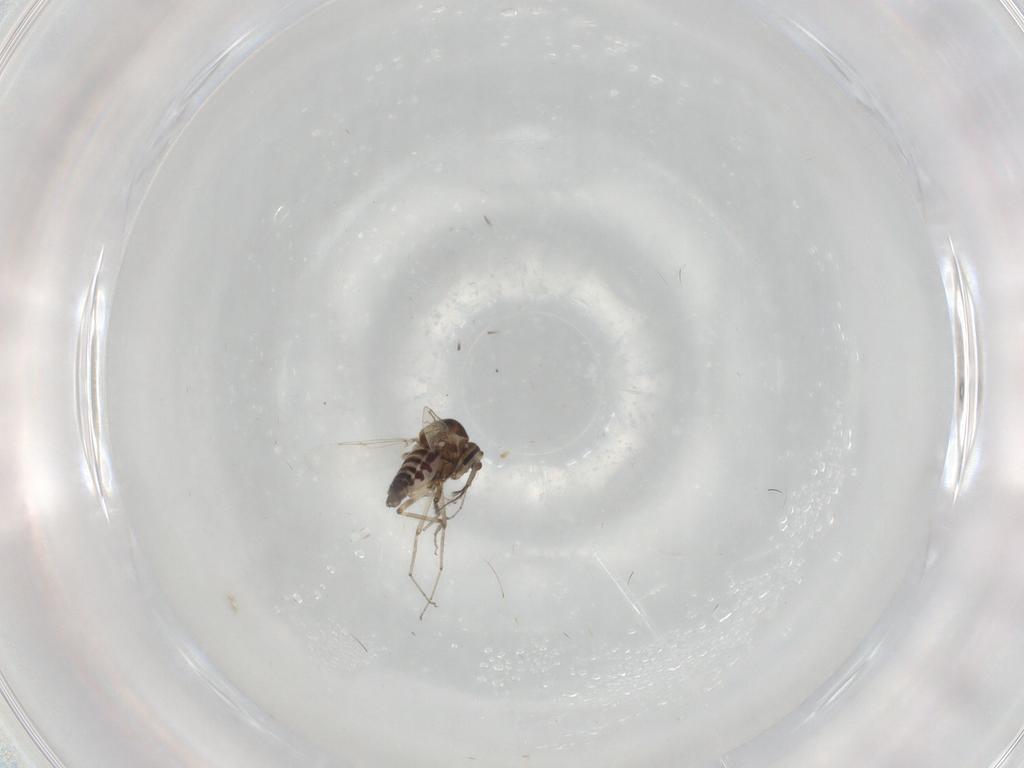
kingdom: Animalia
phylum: Arthropoda
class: Insecta
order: Diptera
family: Ceratopogonidae
